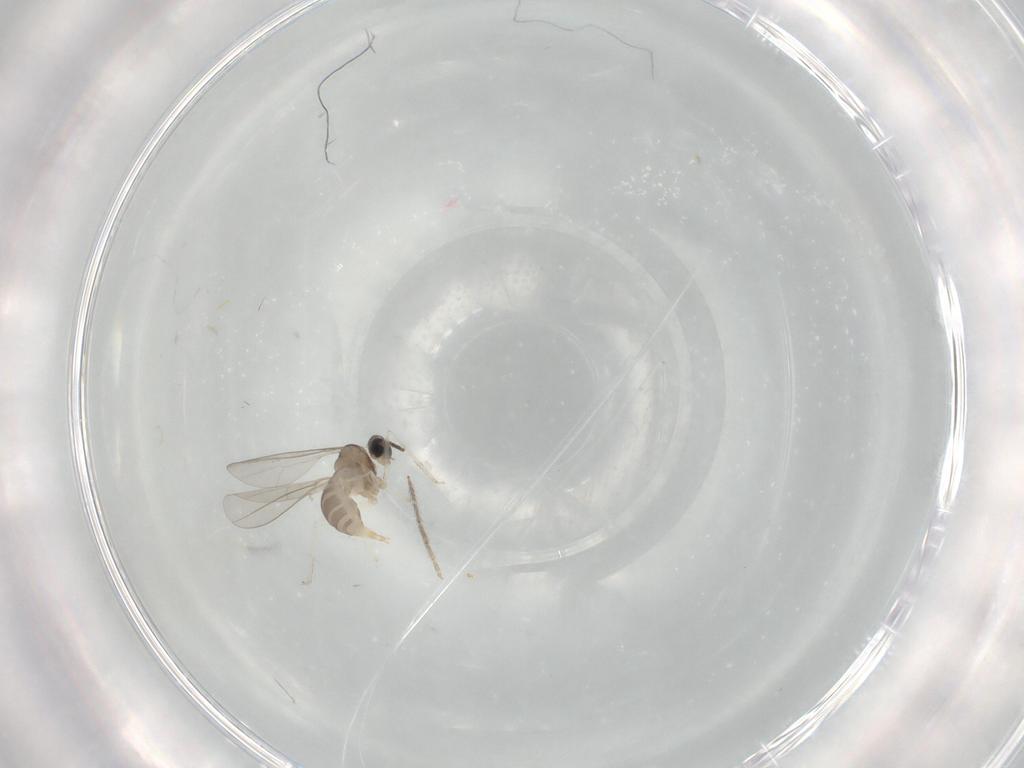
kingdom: Animalia
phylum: Arthropoda
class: Insecta
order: Diptera
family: Cecidomyiidae
